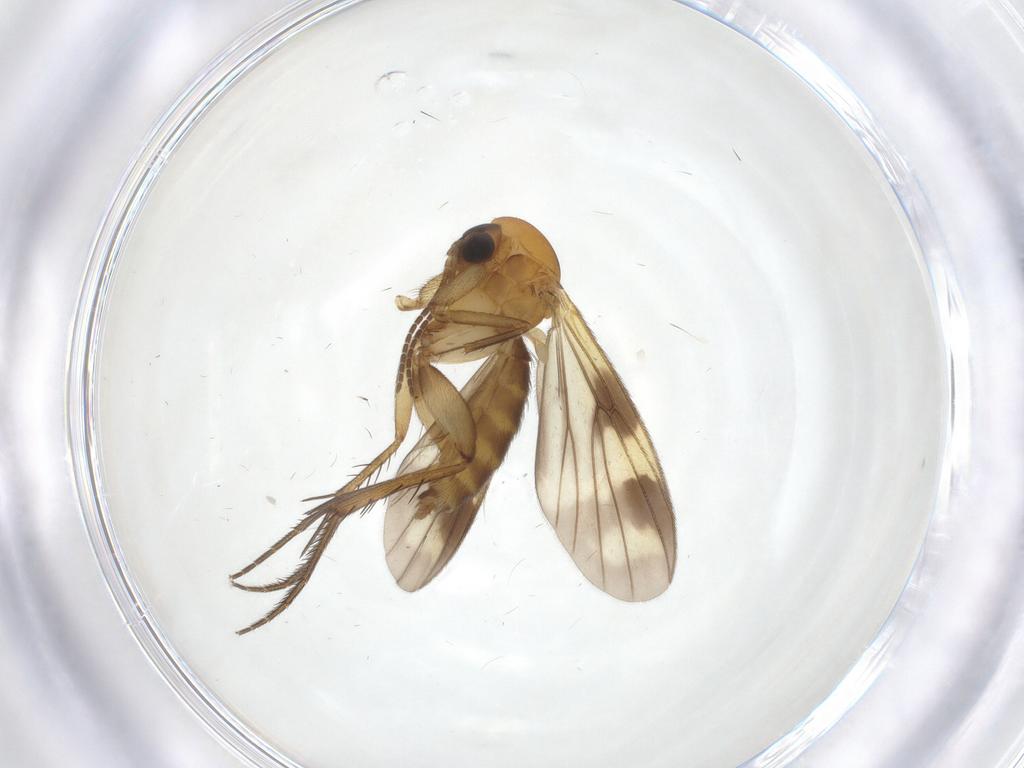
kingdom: Animalia
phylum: Arthropoda
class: Insecta
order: Diptera
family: Mycetophilidae
